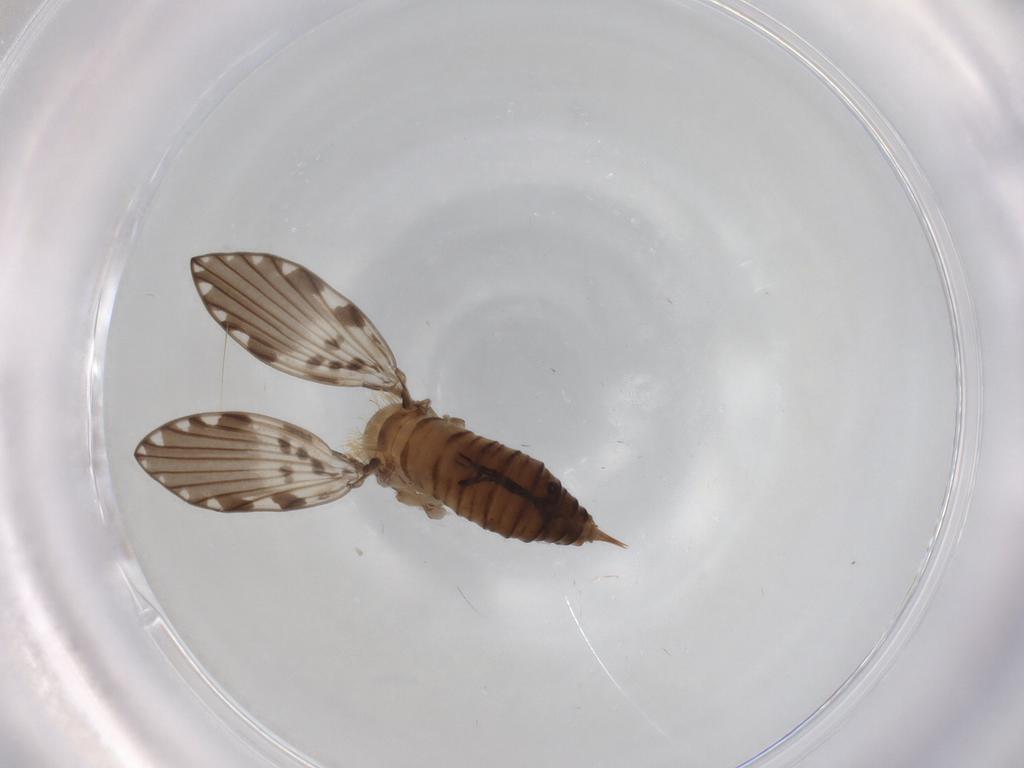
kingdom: Animalia
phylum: Arthropoda
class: Insecta
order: Diptera
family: Psychodidae
